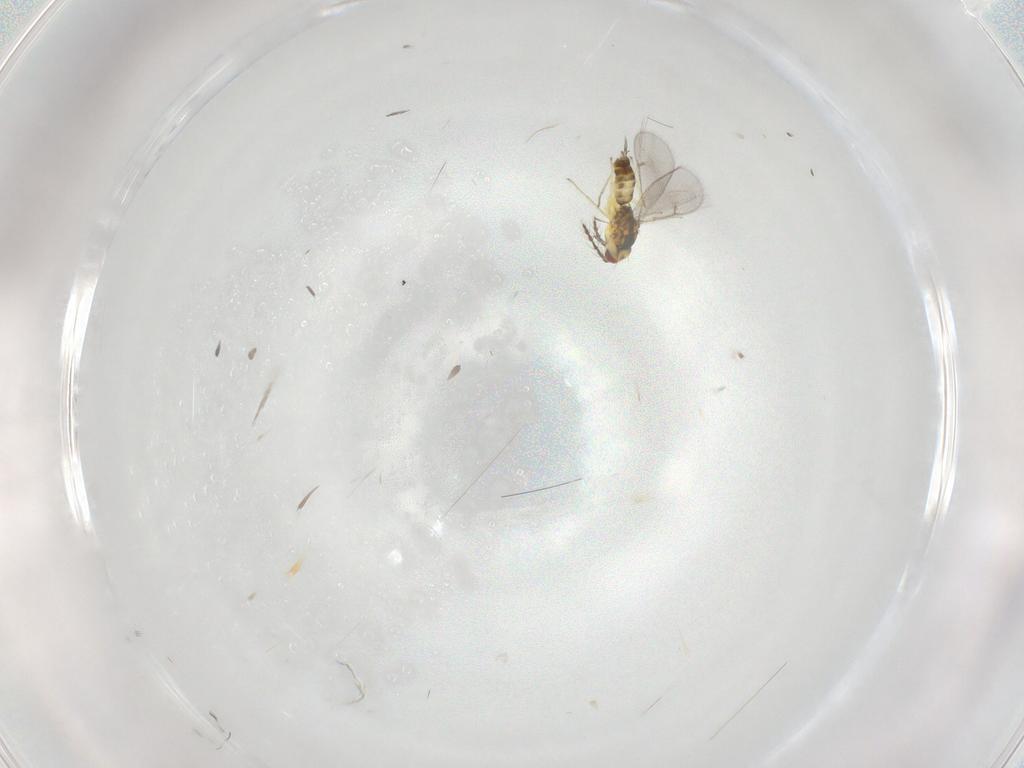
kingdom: Animalia
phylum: Arthropoda
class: Insecta
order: Hymenoptera
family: Eulophidae
